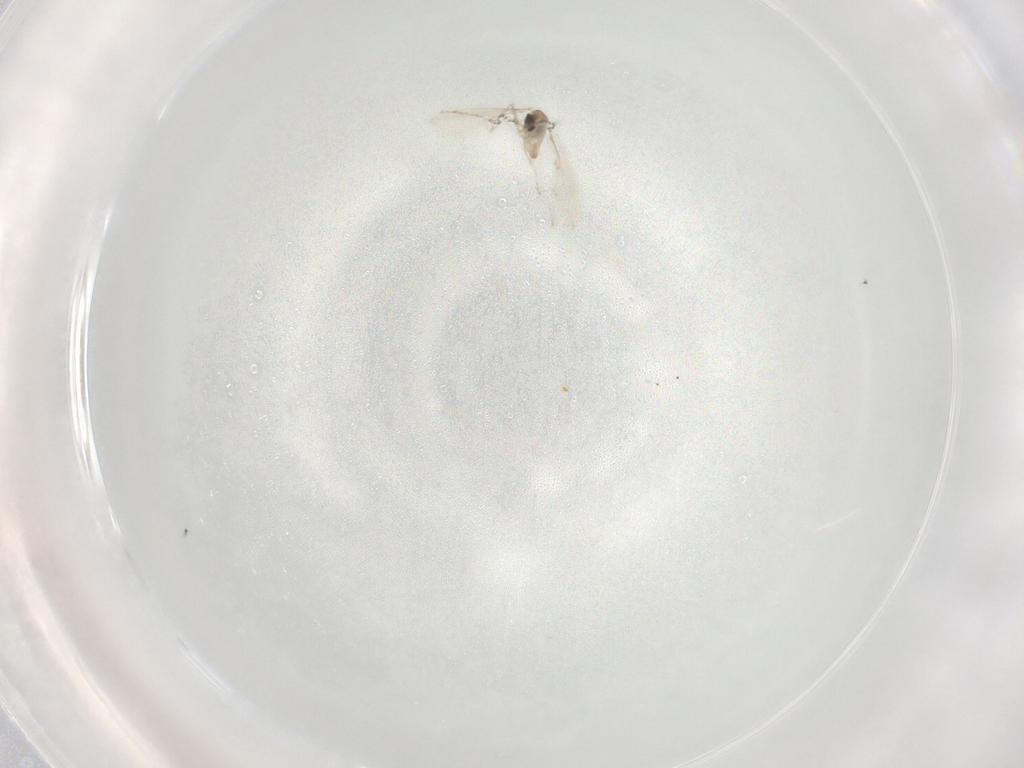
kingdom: Animalia
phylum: Arthropoda
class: Insecta
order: Diptera
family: Cecidomyiidae
